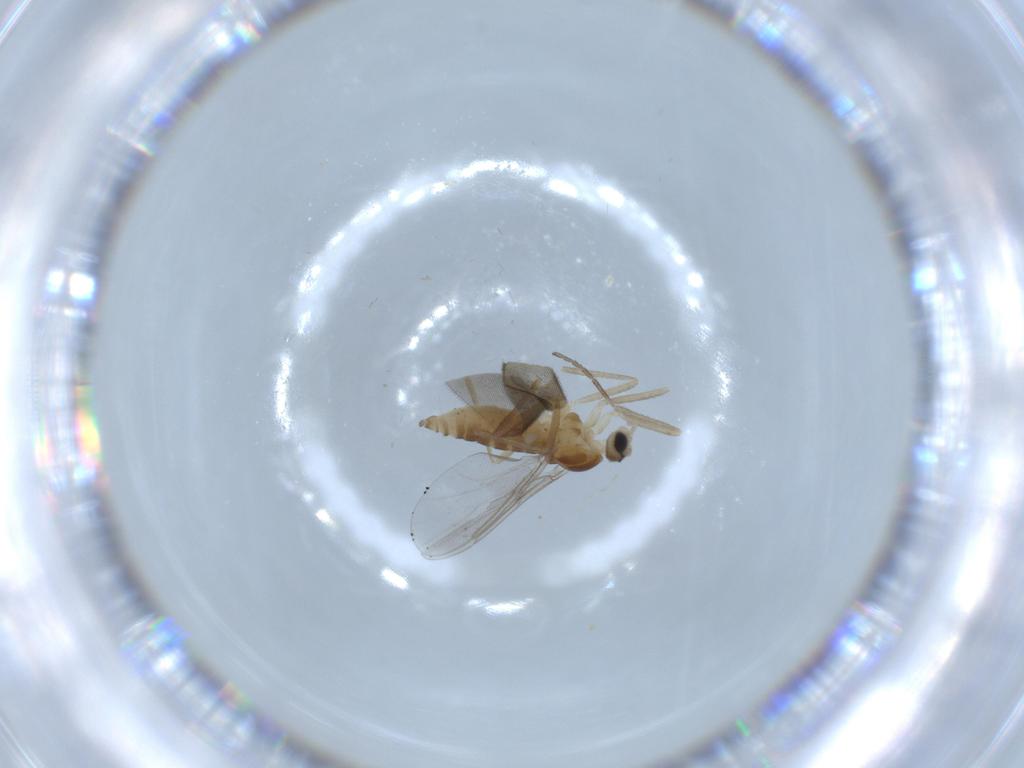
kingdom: Animalia
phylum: Arthropoda
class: Insecta
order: Diptera
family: Cecidomyiidae
